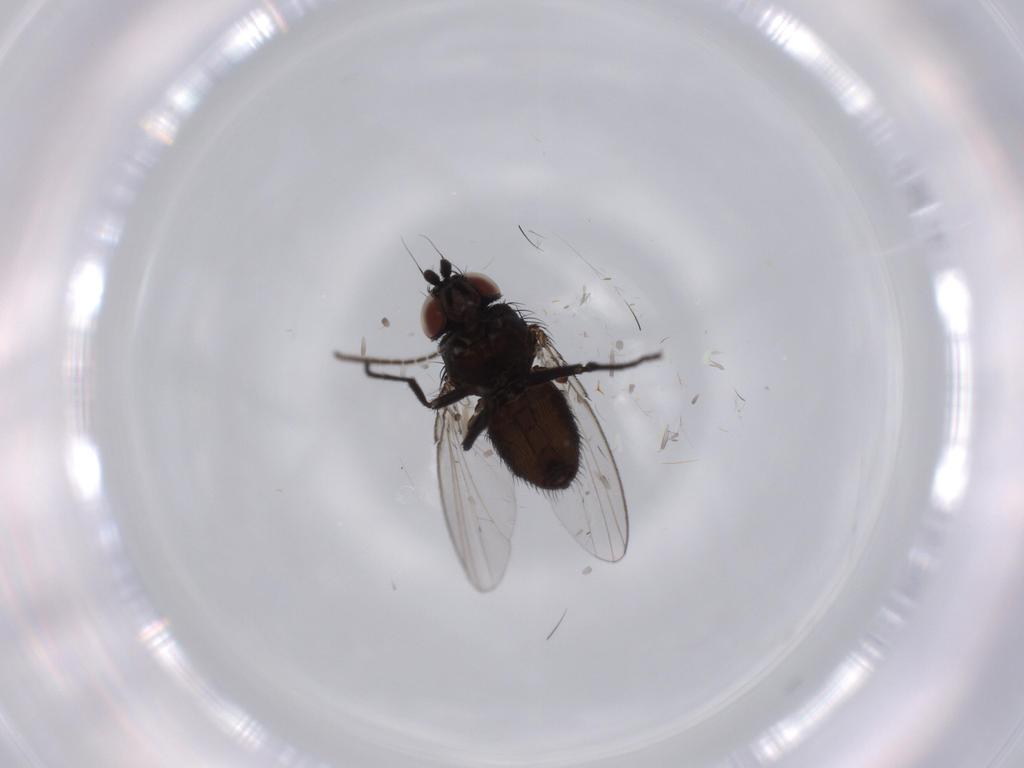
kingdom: Animalia
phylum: Arthropoda
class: Insecta
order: Diptera
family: Milichiidae
